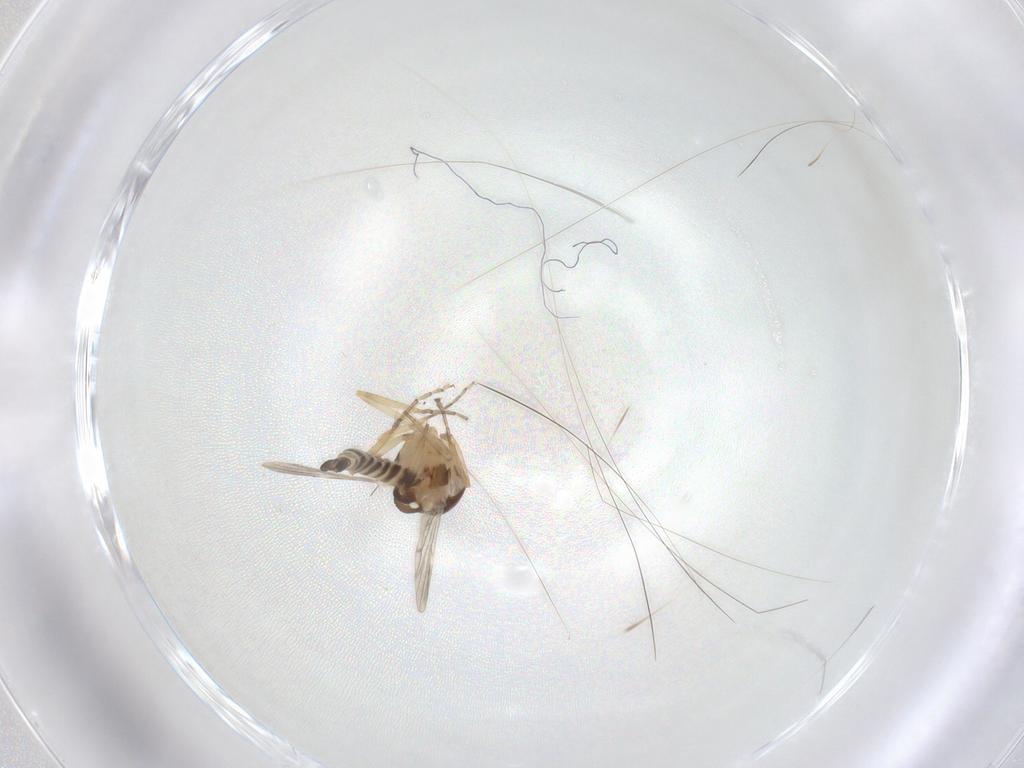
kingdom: Animalia
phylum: Arthropoda
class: Insecta
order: Diptera
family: Ceratopogonidae
